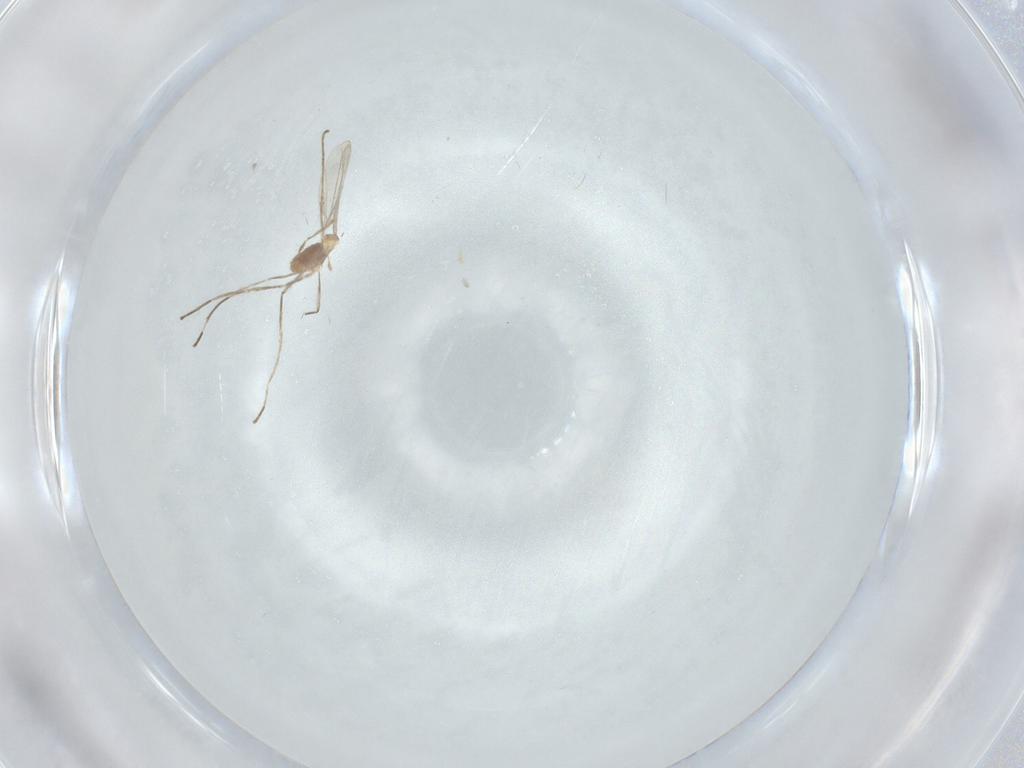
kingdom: Animalia
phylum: Arthropoda
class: Insecta
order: Diptera
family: Cecidomyiidae
